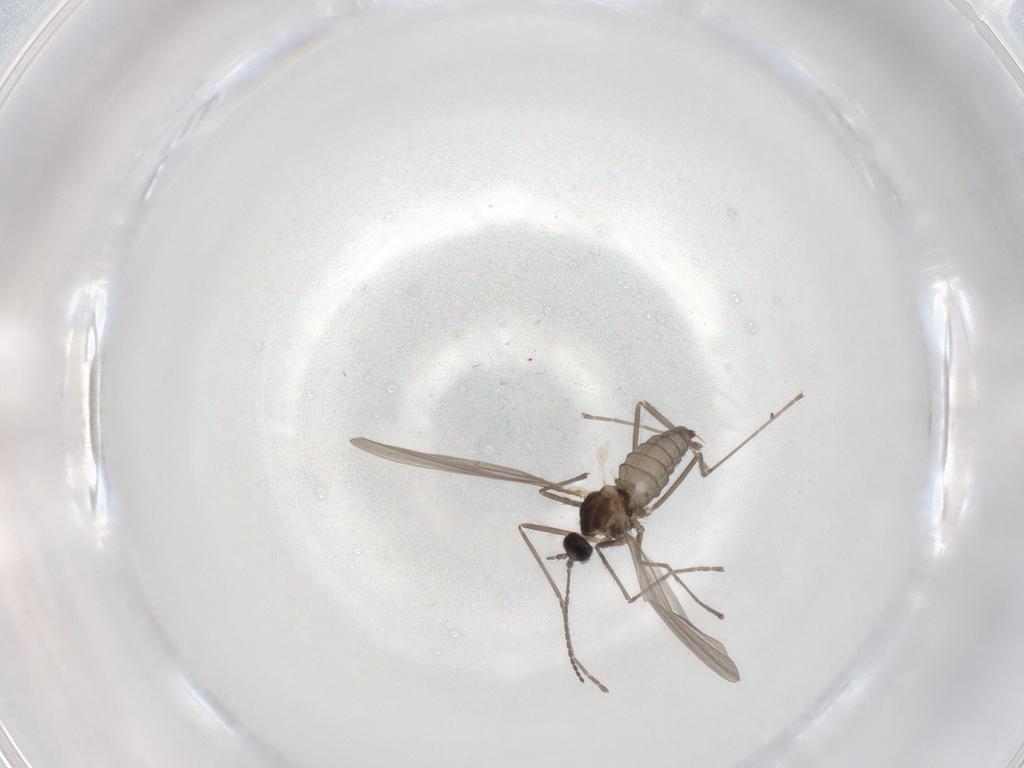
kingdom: Animalia
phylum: Arthropoda
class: Insecta
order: Diptera
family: Cecidomyiidae
